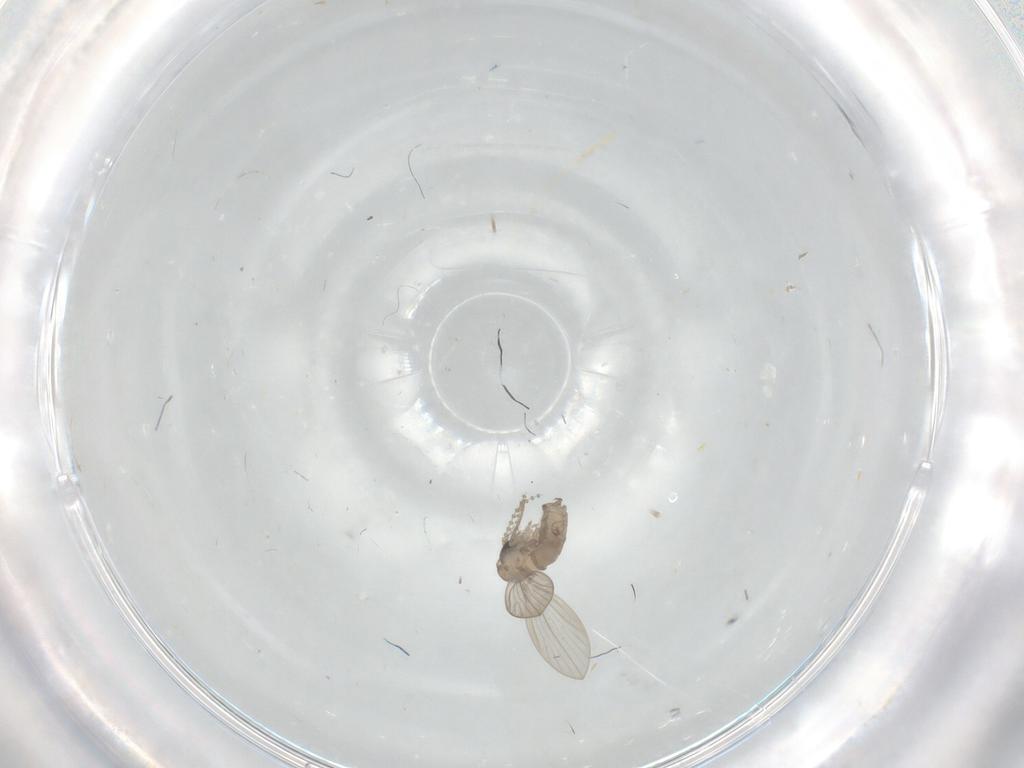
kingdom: Animalia
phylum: Arthropoda
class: Insecta
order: Diptera
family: Psychodidae
